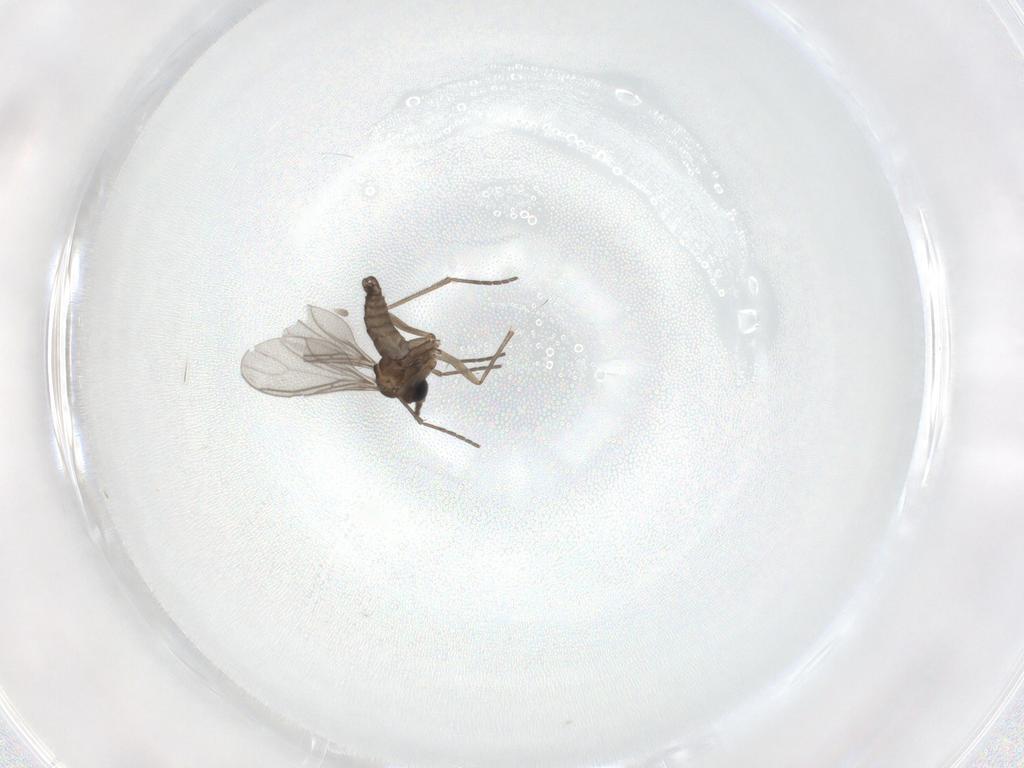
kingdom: Animalia
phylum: Arthropoda
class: Insecta
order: Diptera
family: Sciaridae
